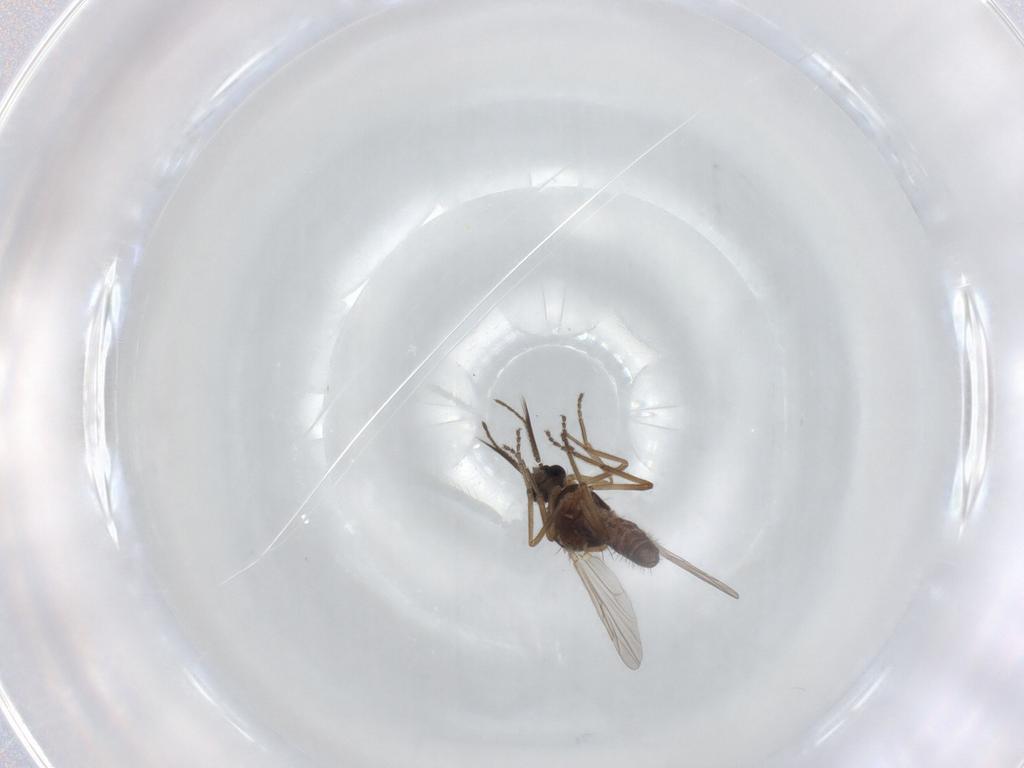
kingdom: Animalia
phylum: Arthropoda
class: Insecta
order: Diptera
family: Ceratopogonidae
